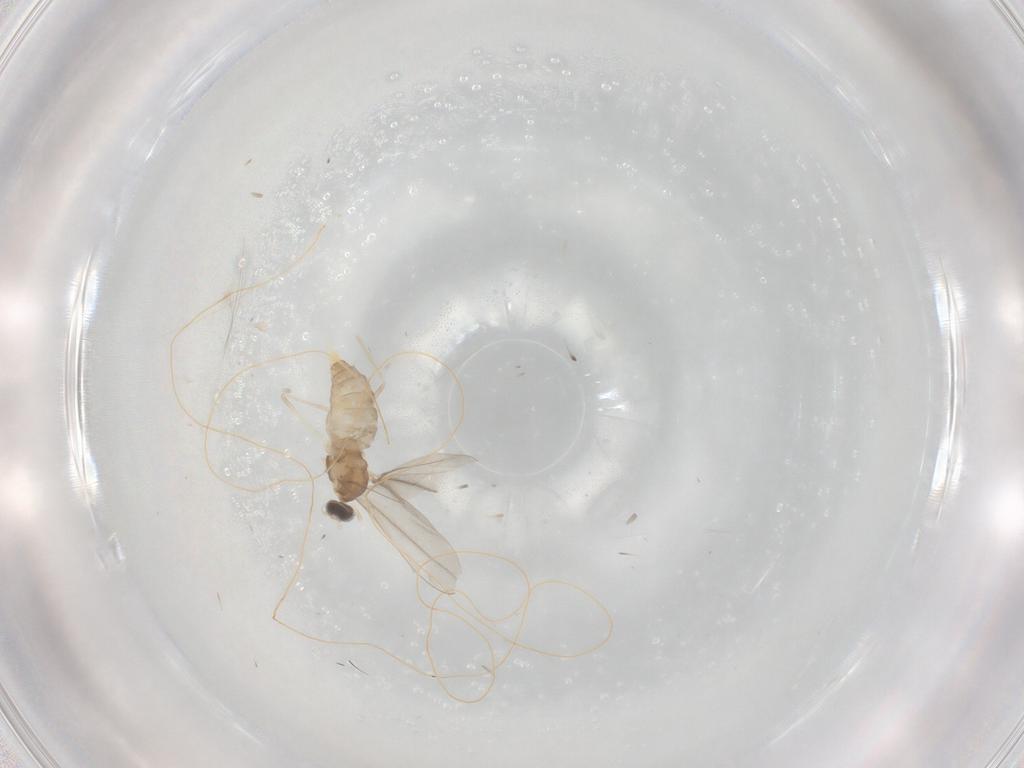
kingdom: Animalia
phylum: Arthropoda
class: Insecta
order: Diptera
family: Cecidomyiidae
